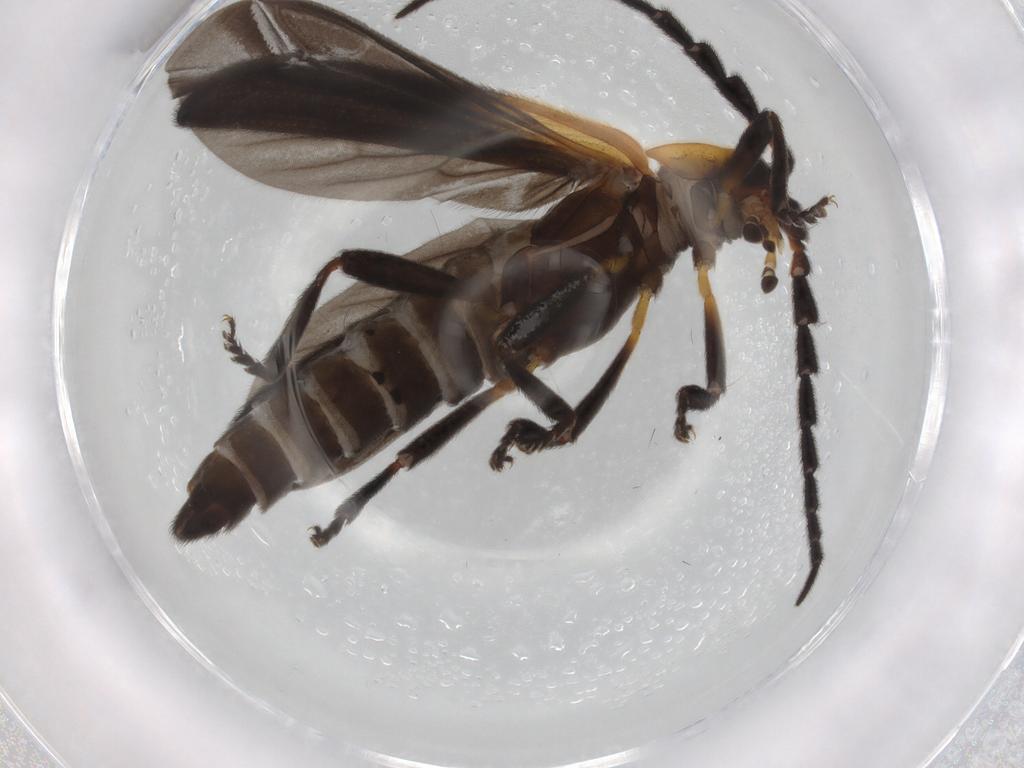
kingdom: Animalia
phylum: Arthropoda
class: Insecta
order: Coleoptera
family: Lycidae
